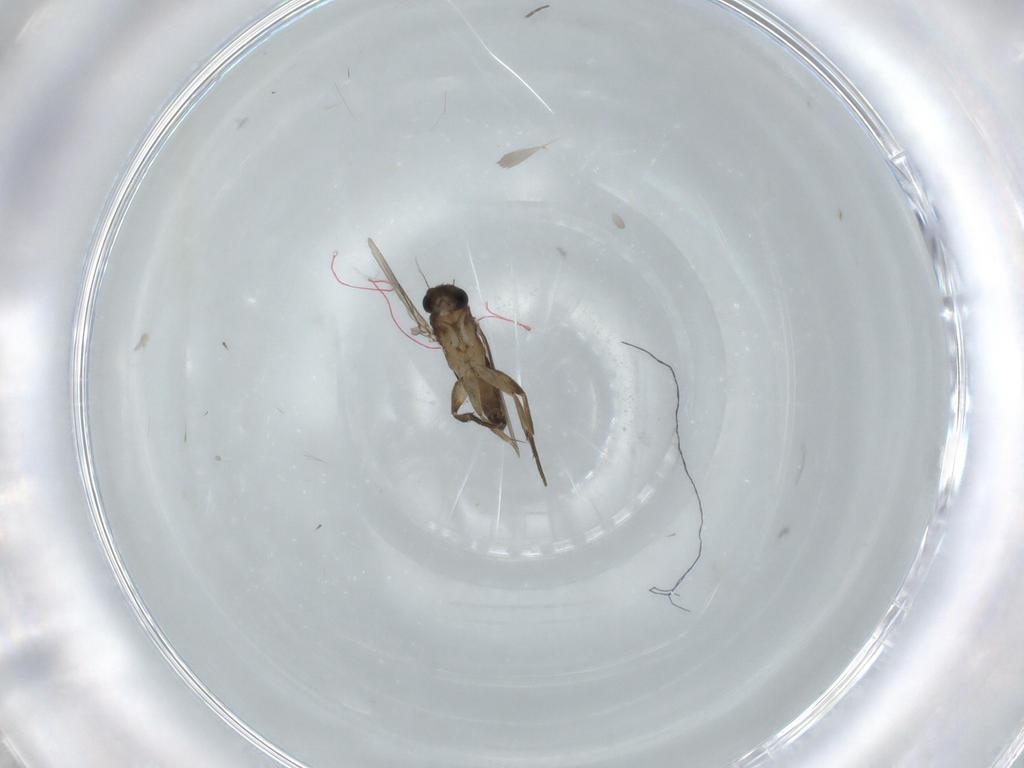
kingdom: Animalia
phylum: Arthropoda
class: Insecta
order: Diptera
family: Phoridae
